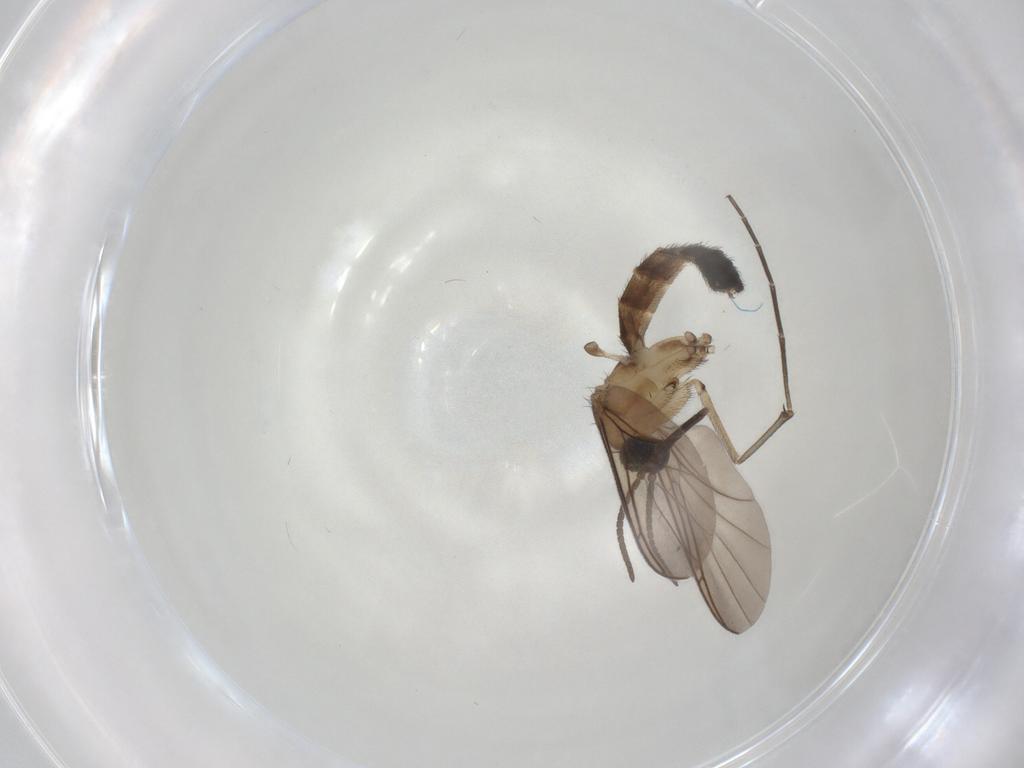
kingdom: Animalia
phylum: Arthropoda
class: Insecta
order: Diptera
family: Keroplatidae
